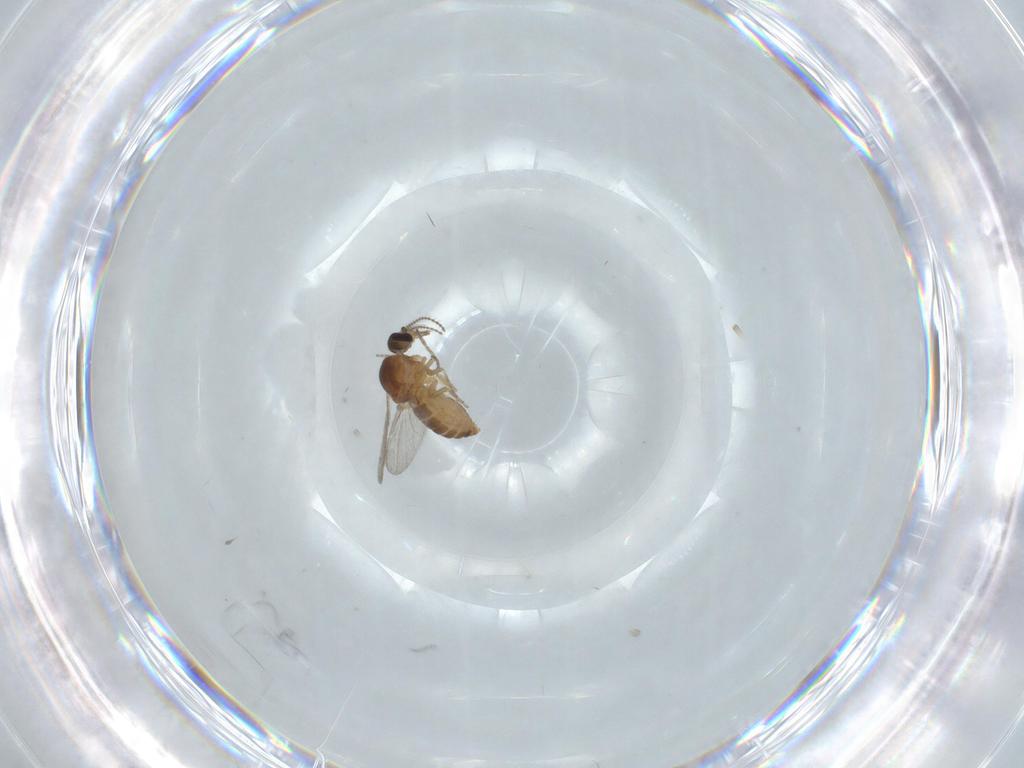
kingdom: Animalia
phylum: Arthropoda
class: Insecta
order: Diptera
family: Ceratopogonidae
